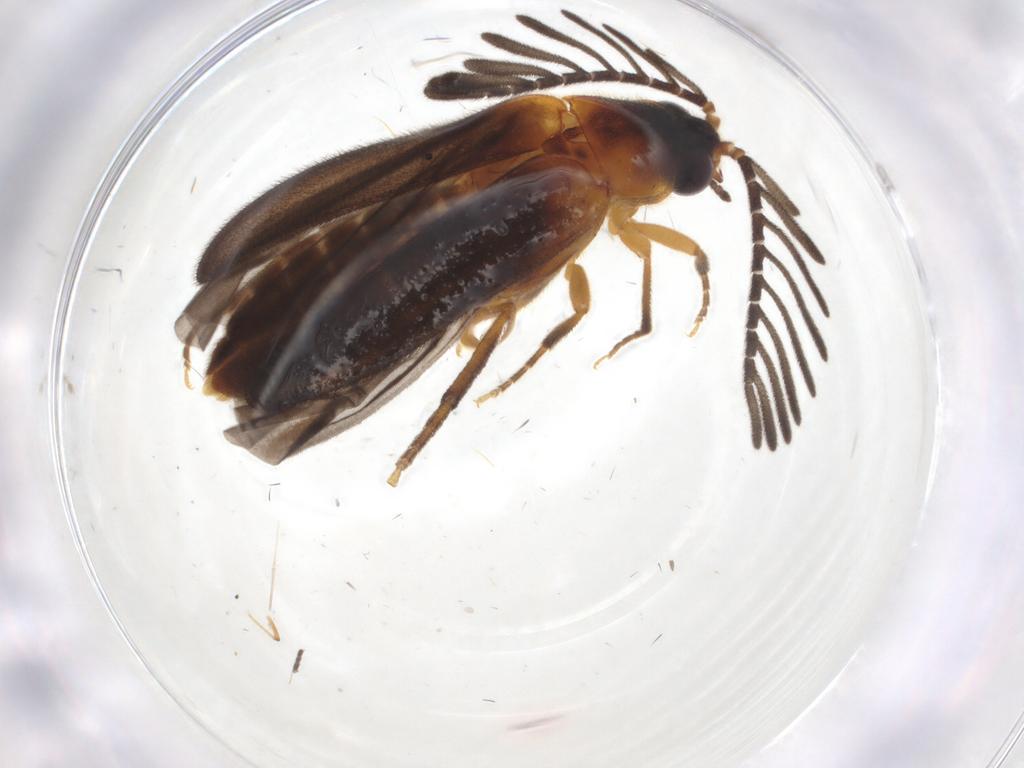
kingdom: Animalia
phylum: Arthropoda
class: Insecta
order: Coleoptera
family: Lampyridae
